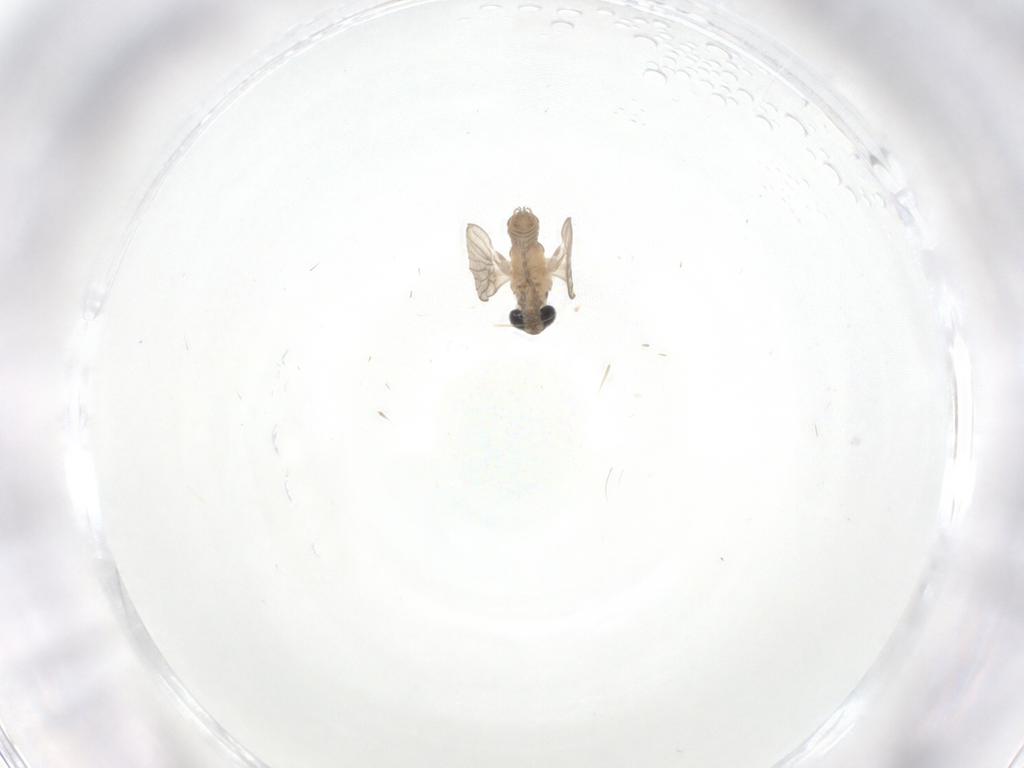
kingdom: Animalia
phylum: Arthropoda
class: Insecta
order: Diptera
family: Psychodidae
